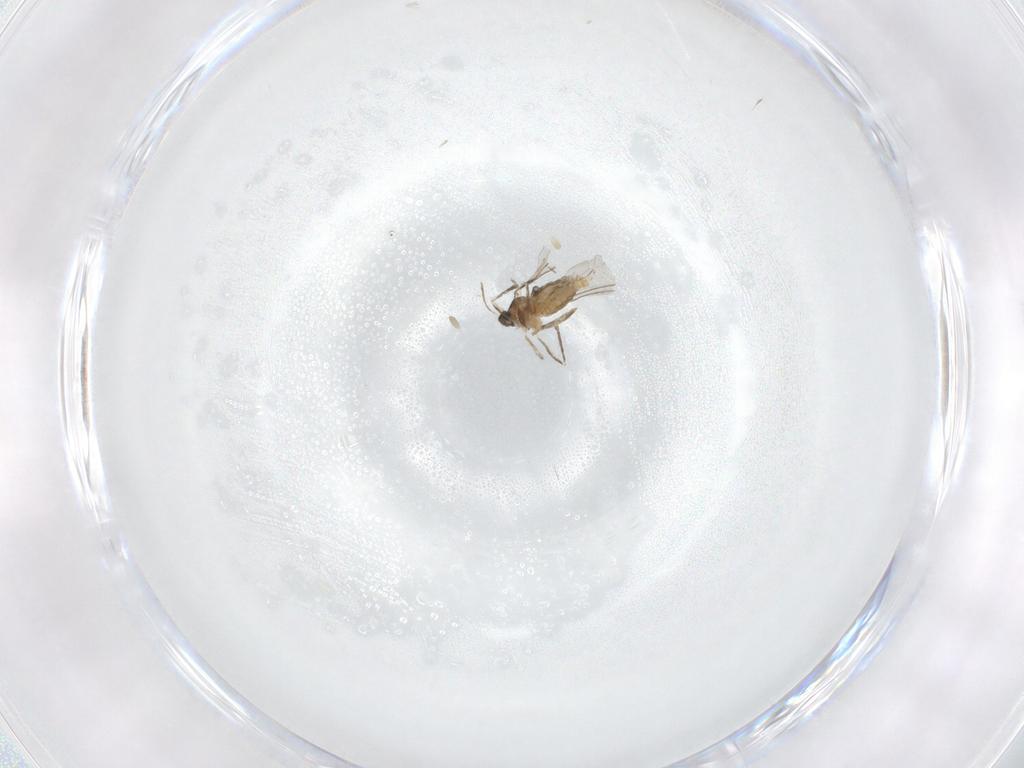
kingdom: Animalia
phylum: Arthropoda
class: Insecta
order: Diptera
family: Cecidomyiidae
